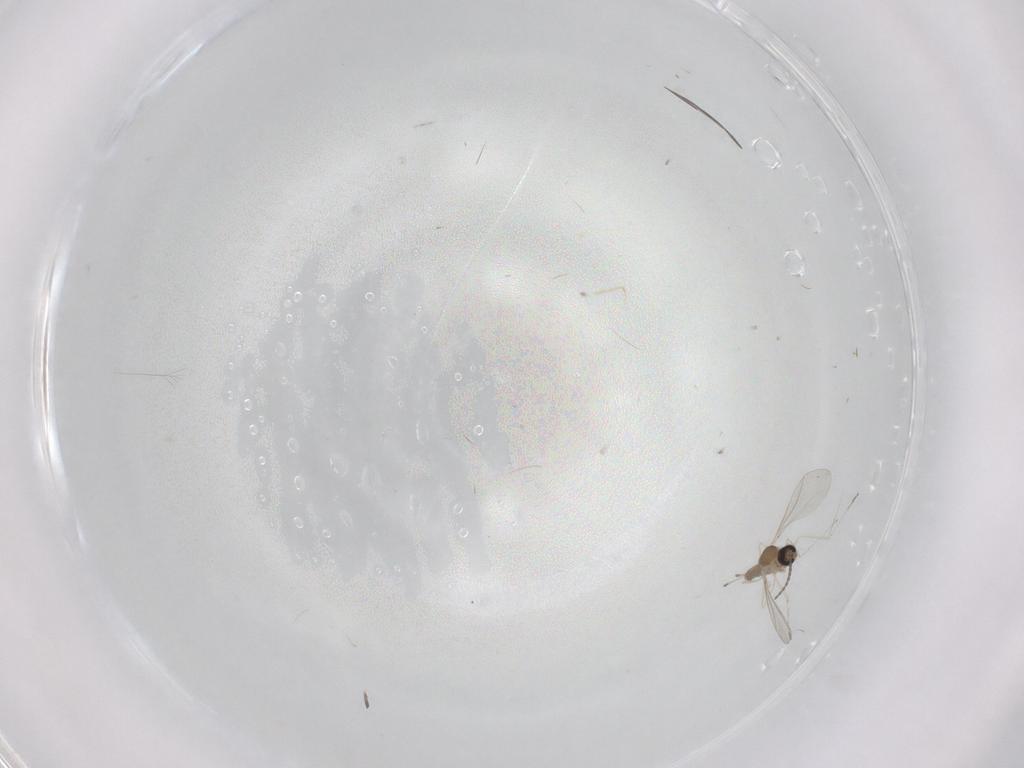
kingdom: Animalia
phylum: Arthropoda
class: Insecta
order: Diptera
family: Cecidomyiidae
